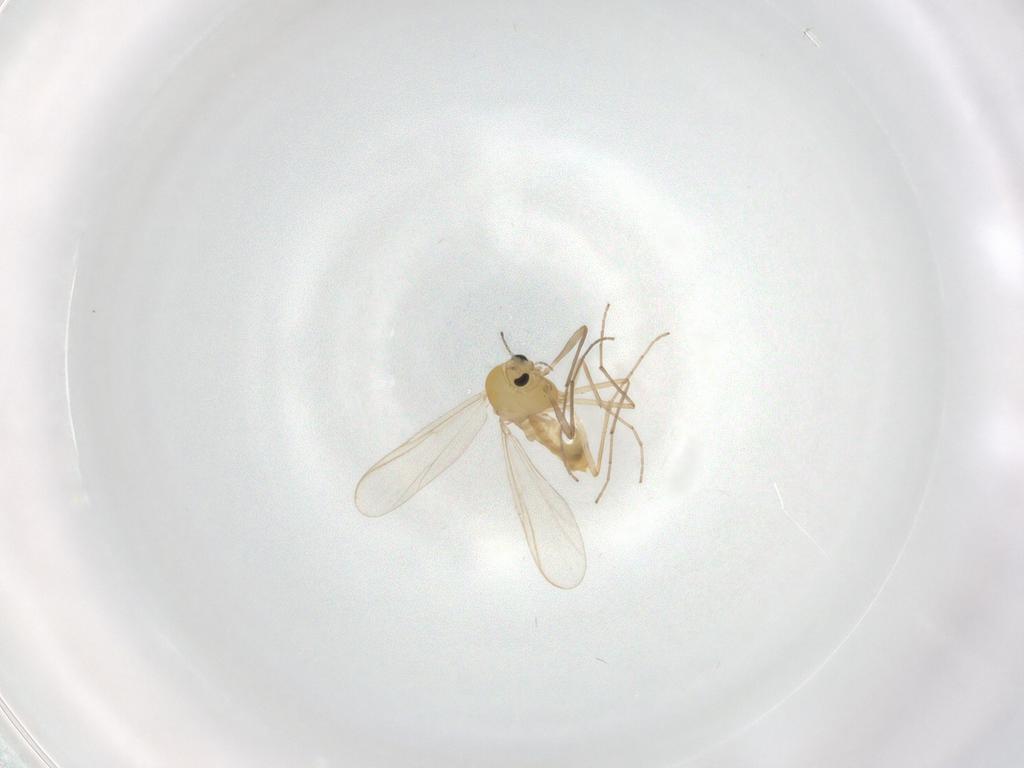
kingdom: Animalia
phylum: Arthropoda
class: Insecta
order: Diptera
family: Chironomidae
